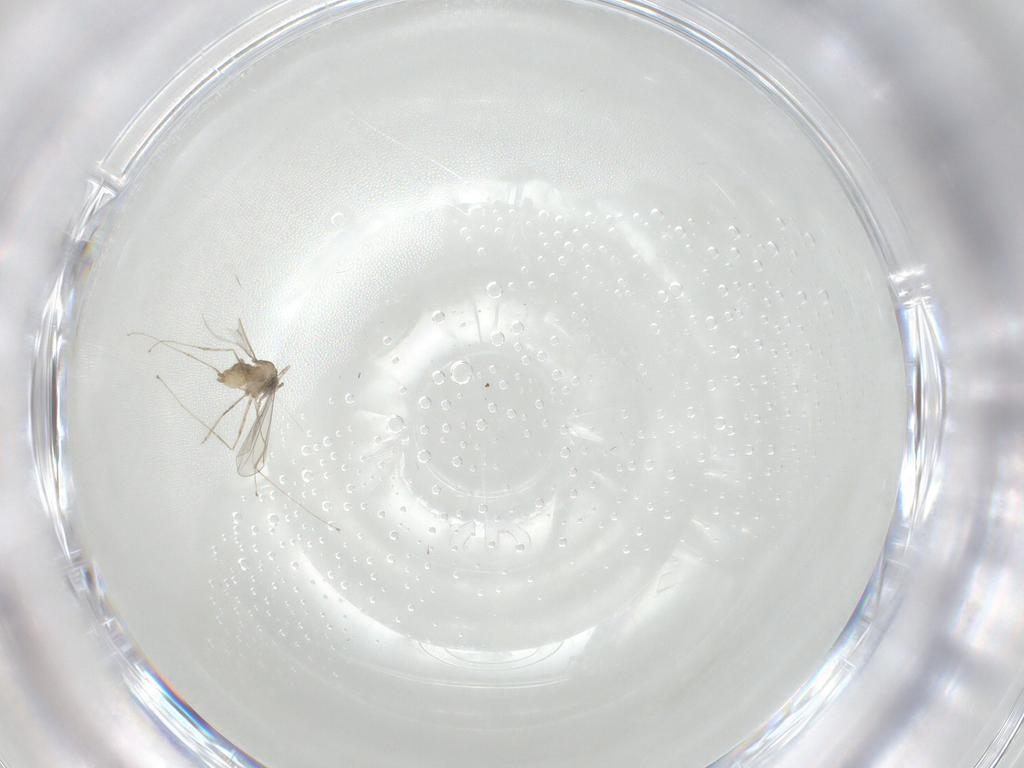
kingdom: Animalia
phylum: Arthropoda
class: Insecta
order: Diptera
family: Cecidomyiidae
